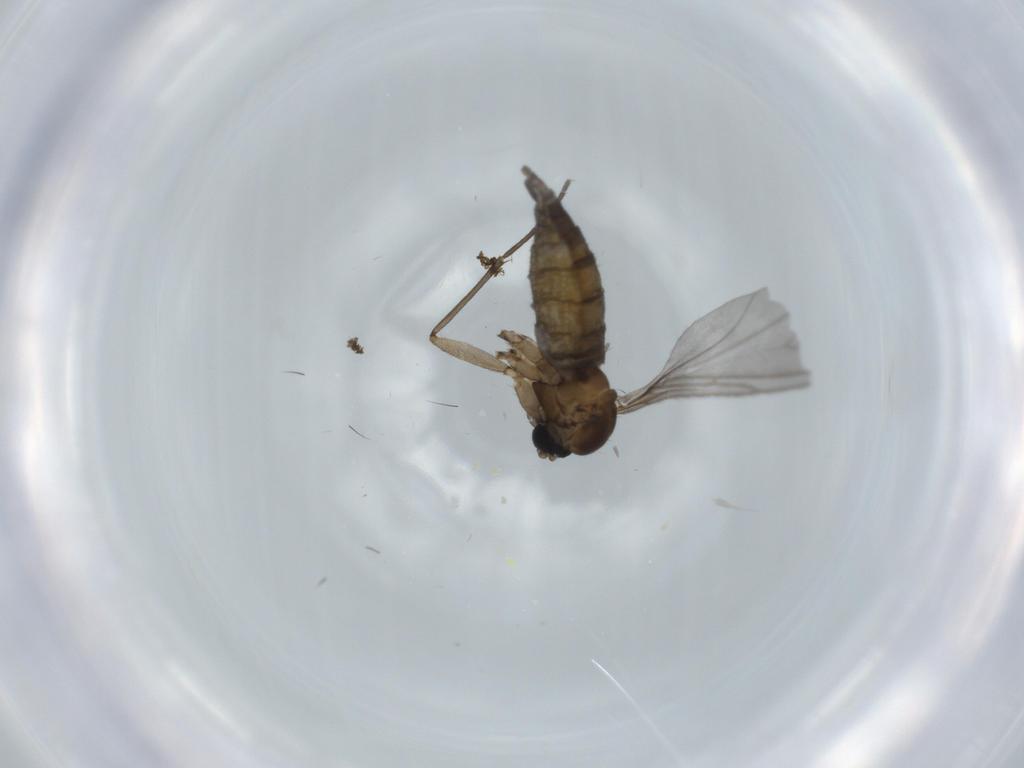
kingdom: Animalia
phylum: Arthropoda
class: Insecta
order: Diptera
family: Sciaridae
